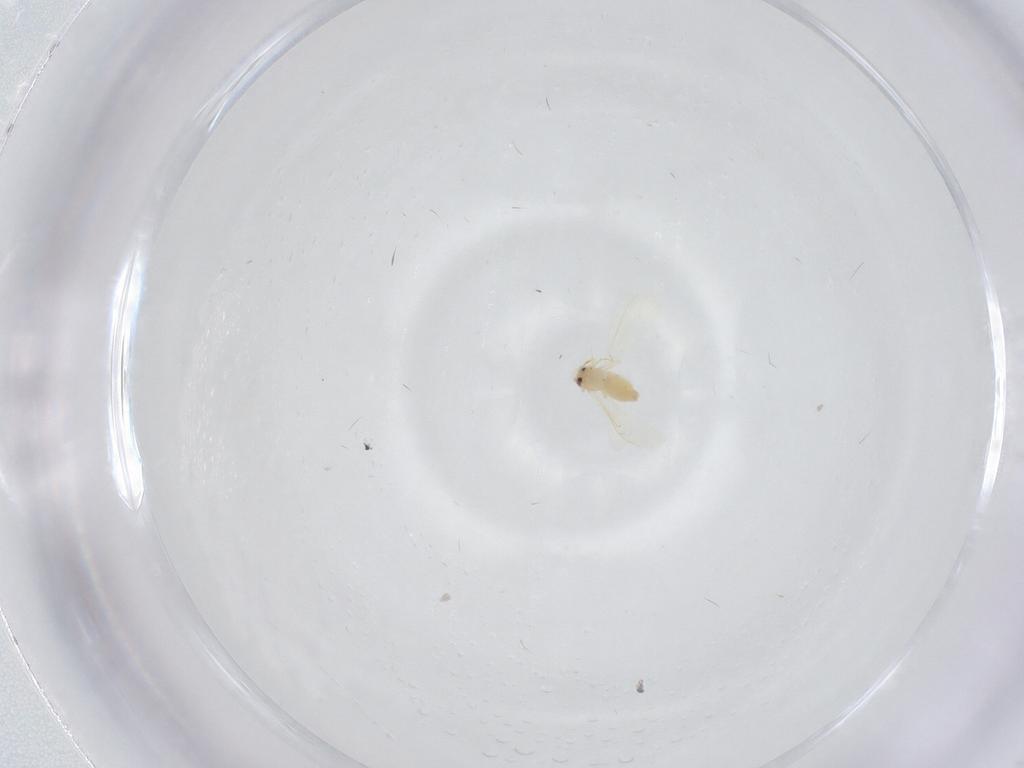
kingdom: Animalia
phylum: Arthropoda
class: Insecta
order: Hemiptera
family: Aleyrodidae
